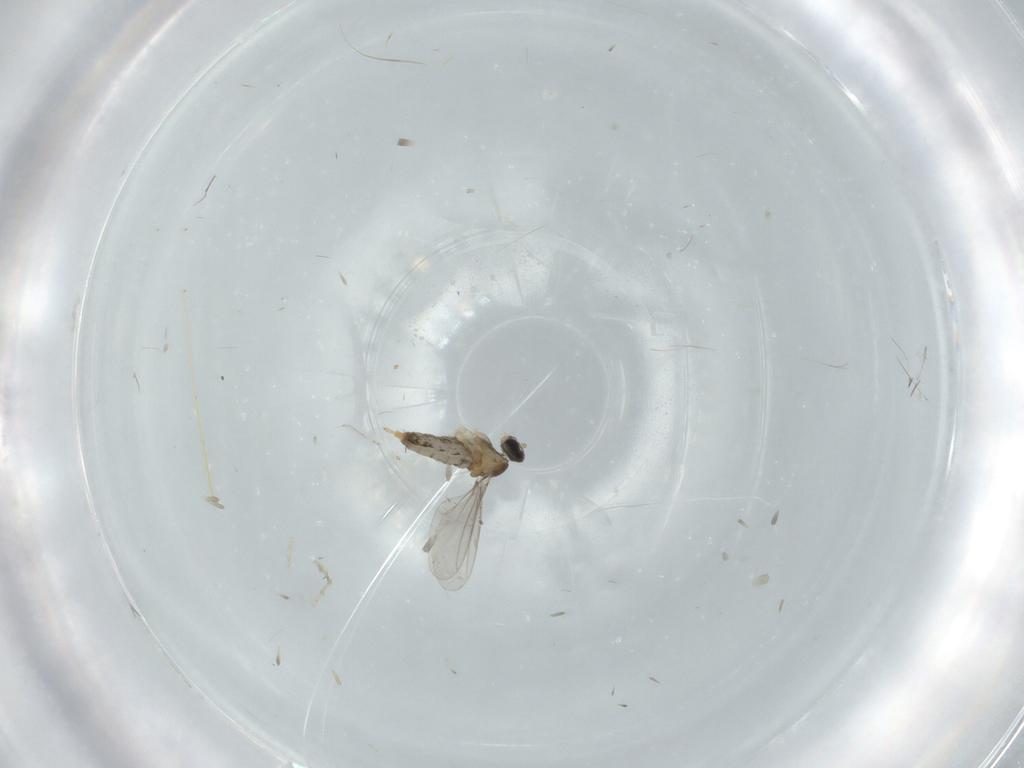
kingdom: Animalia
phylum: Arthropoda
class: Insecta
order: Diptera
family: Cecidomyiidae
